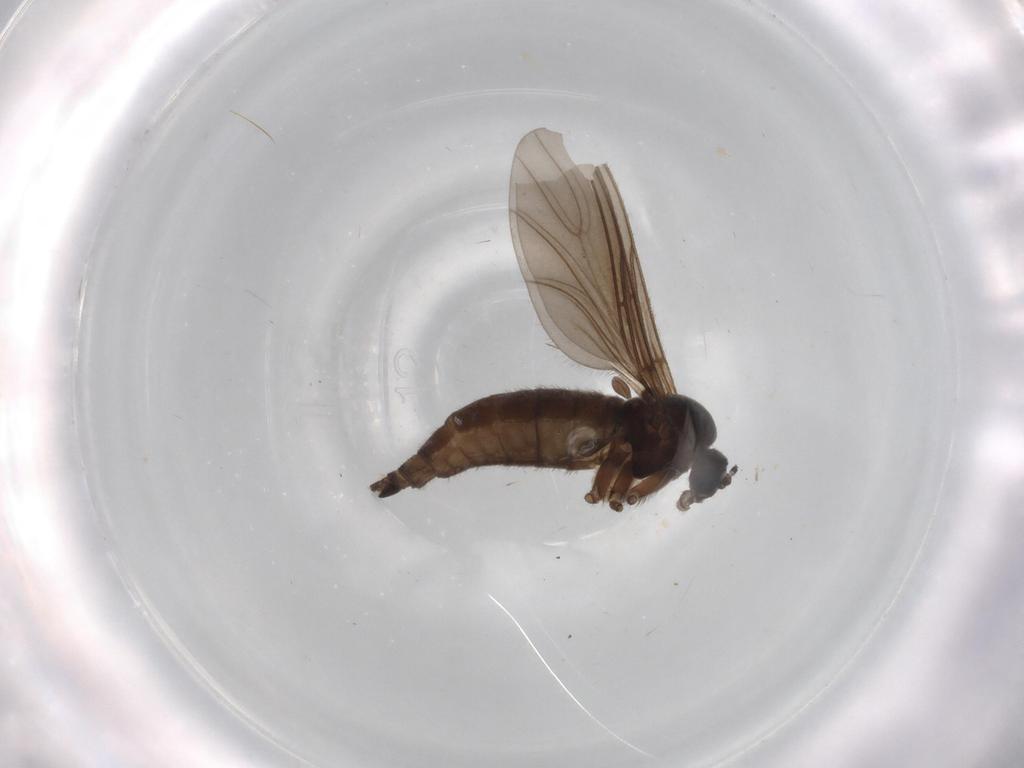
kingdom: Animalia
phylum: Arthropoda
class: Insecta
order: Diptera
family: Sciaridae
